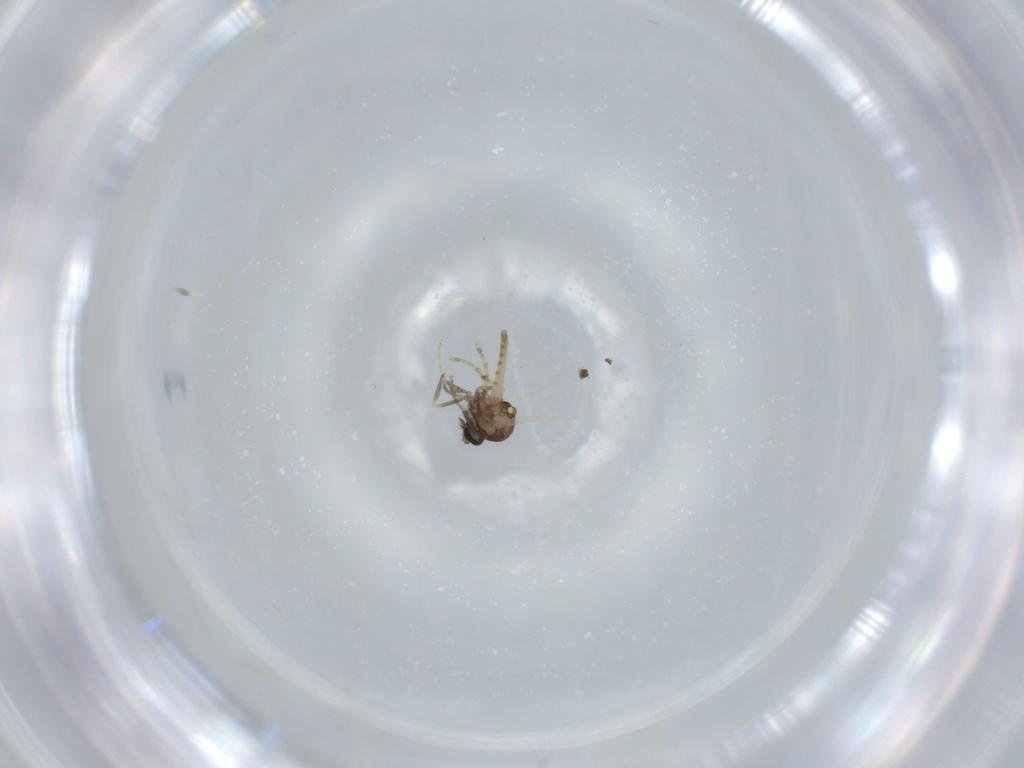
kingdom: Animalia
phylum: Arthropoda
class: Insecta
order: Diptera
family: Ceratopogonidae
